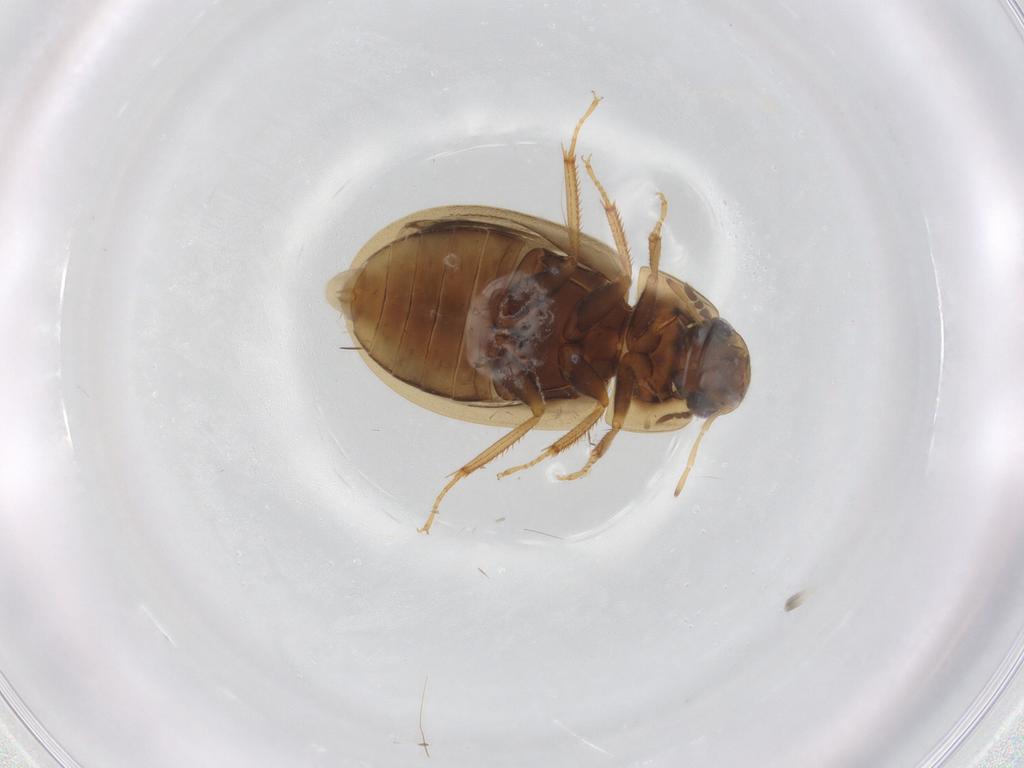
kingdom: Animalia
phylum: Arthropoda
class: Insecta
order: Coleoptera
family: Hydrophilidae
